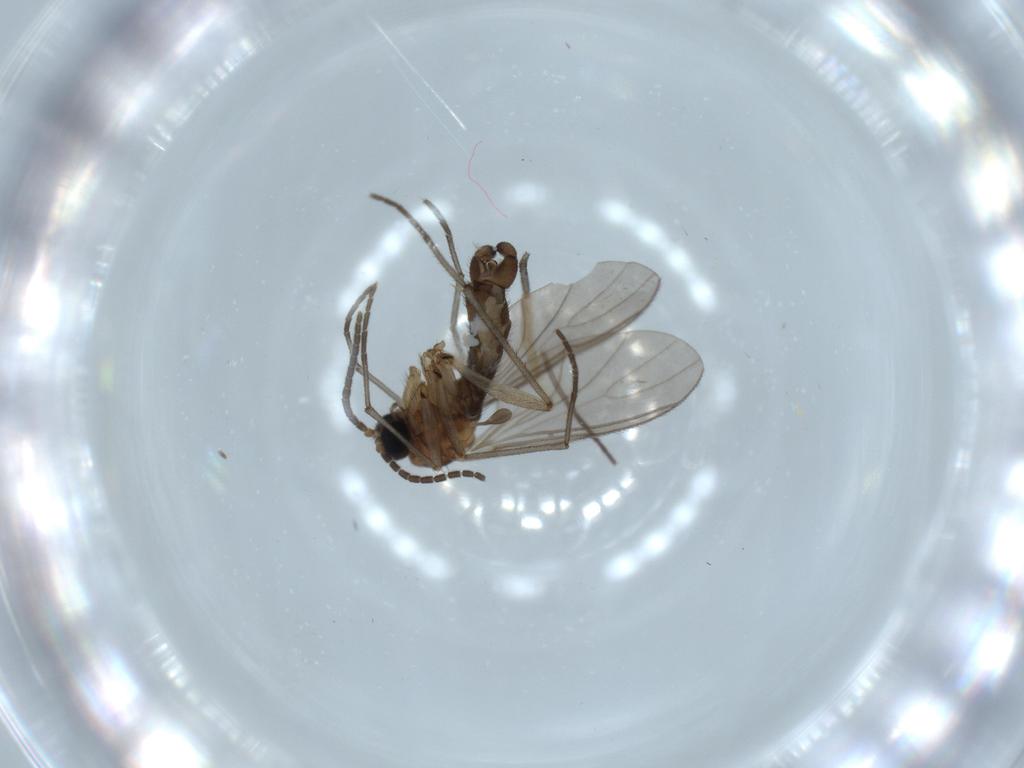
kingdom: Animalia
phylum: Arthropoda
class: Insecta
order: Diptera
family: Sciaridae
